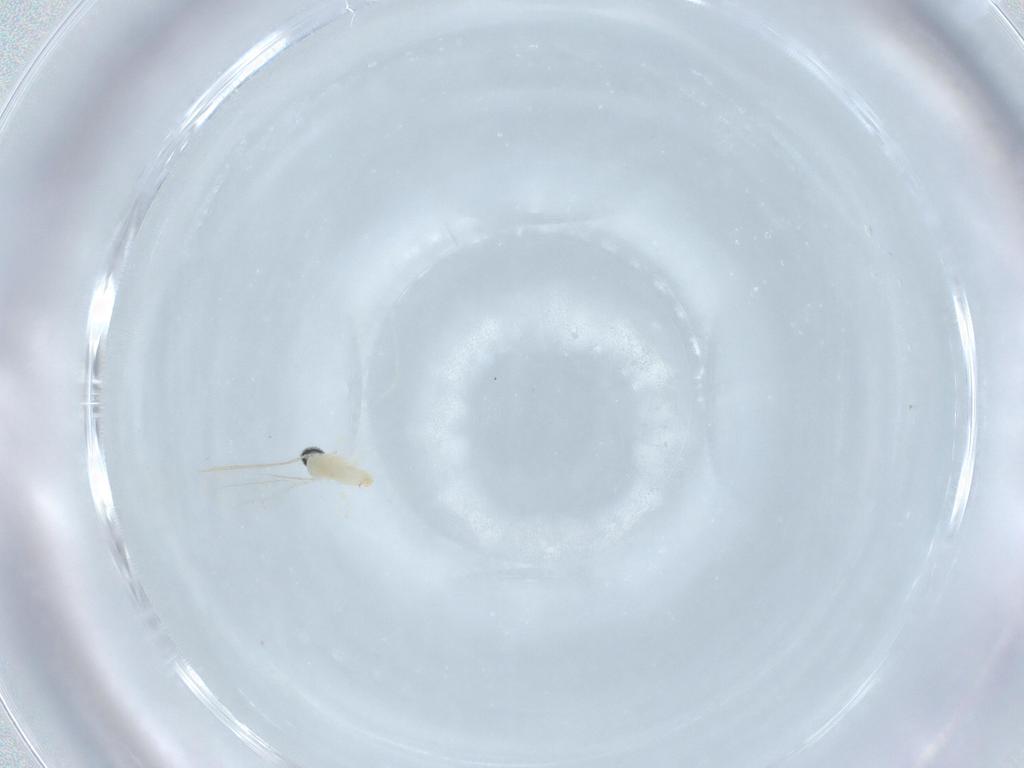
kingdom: Animalia
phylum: Arthropoda
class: Insecta
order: Diptera
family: Cecidomyiidae
